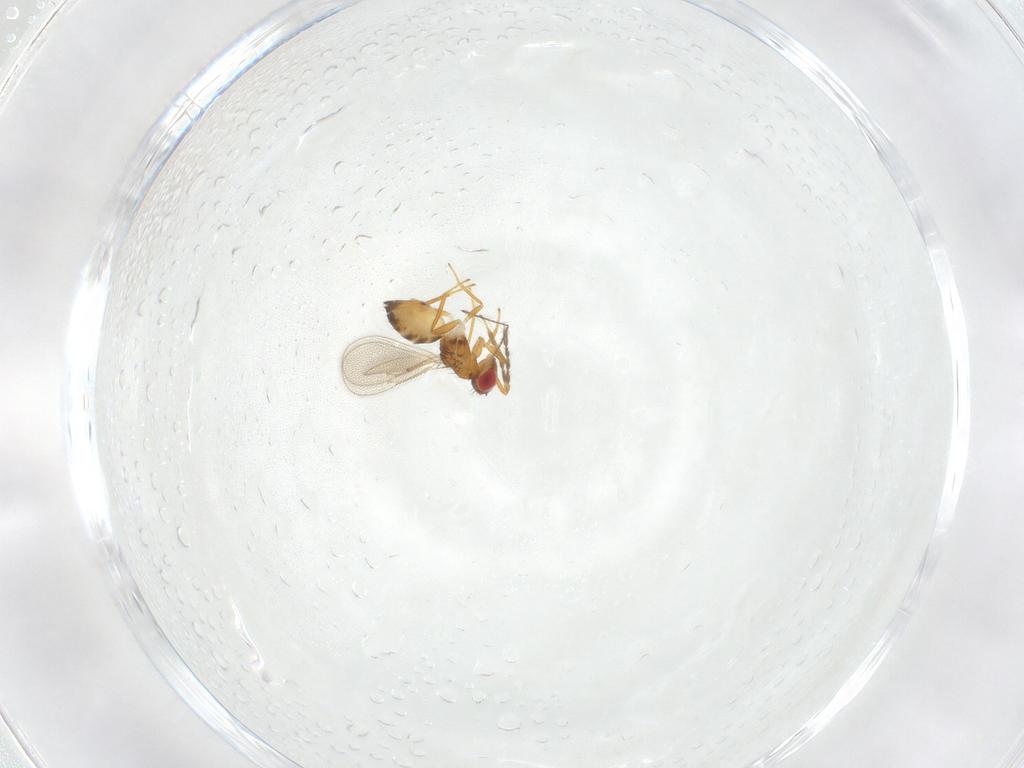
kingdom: Animalia
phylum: Arthropoda
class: Insecta
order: Hymenoptera
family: Eulophidae
